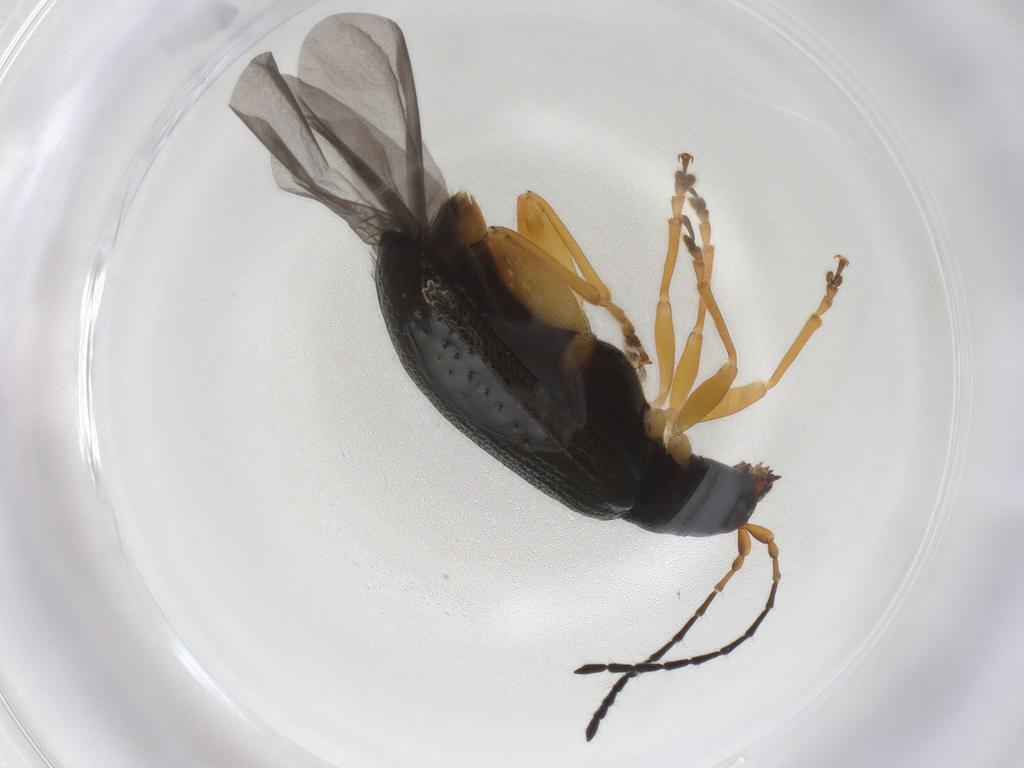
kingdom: Animalia
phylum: Arthropoda
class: Insecta
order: Coleoptera
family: Chrysomelidae
